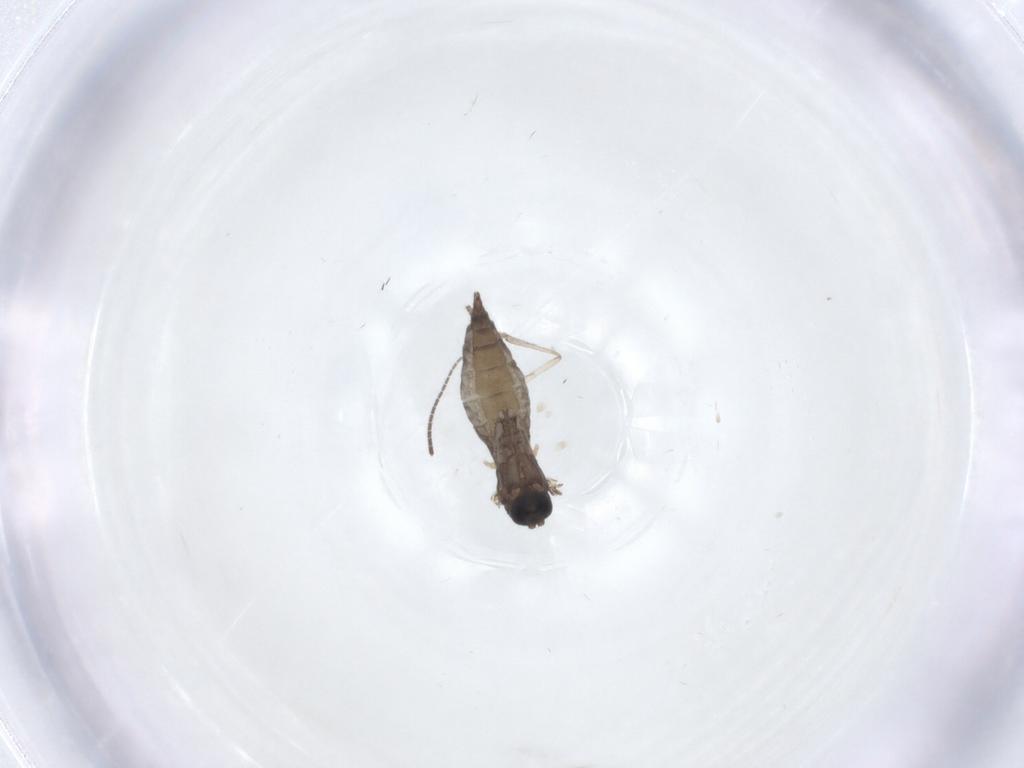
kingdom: Animalia
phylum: Arthropoda
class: Insecta
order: Diptera
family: Sciaridae
